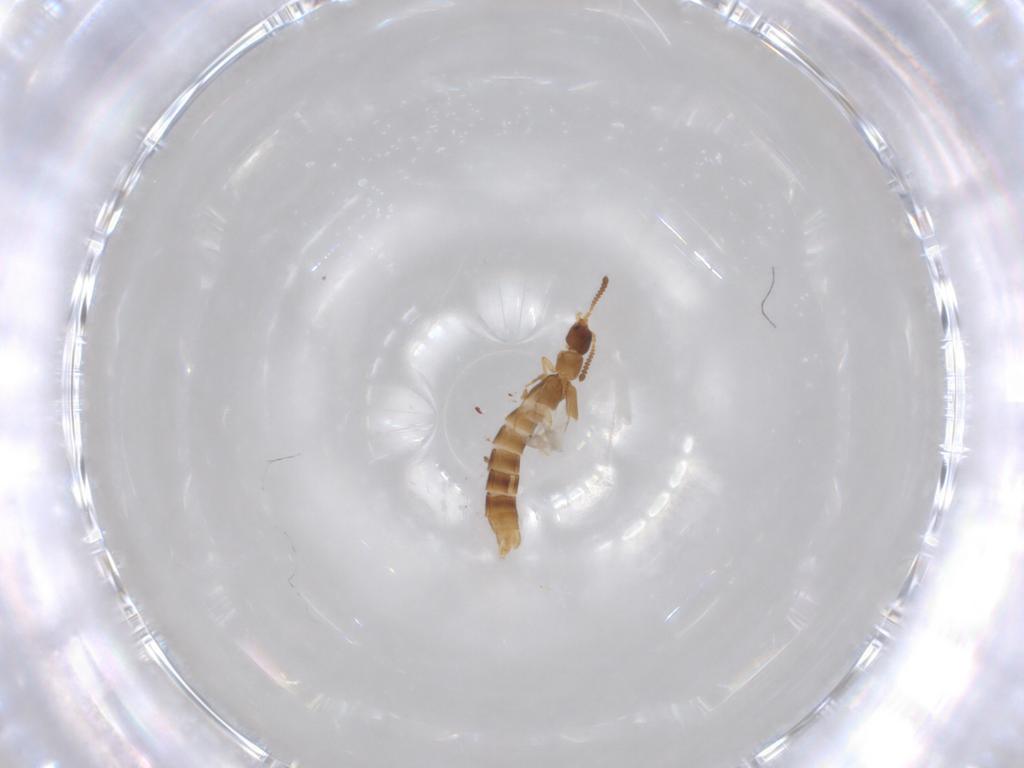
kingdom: Animalia
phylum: Arthropoda
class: Insecta
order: Coleoptera
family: Staphylinidae
